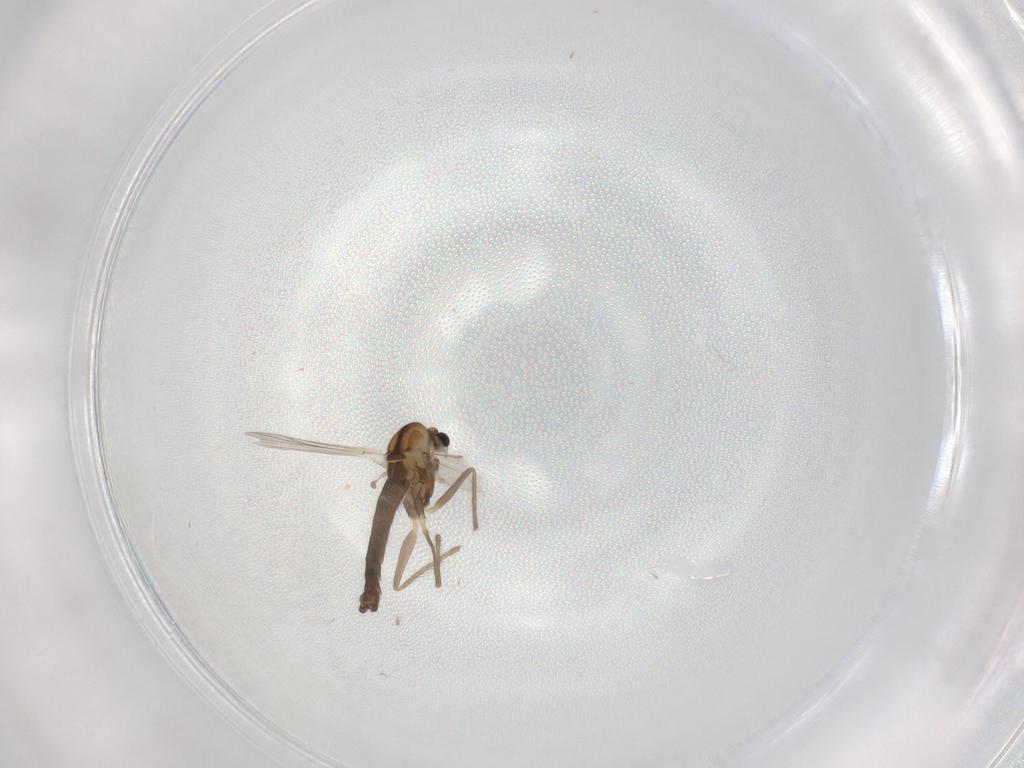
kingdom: Animalia
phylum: Arthropoda
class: Insecta
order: Diptera
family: Chironomidae
